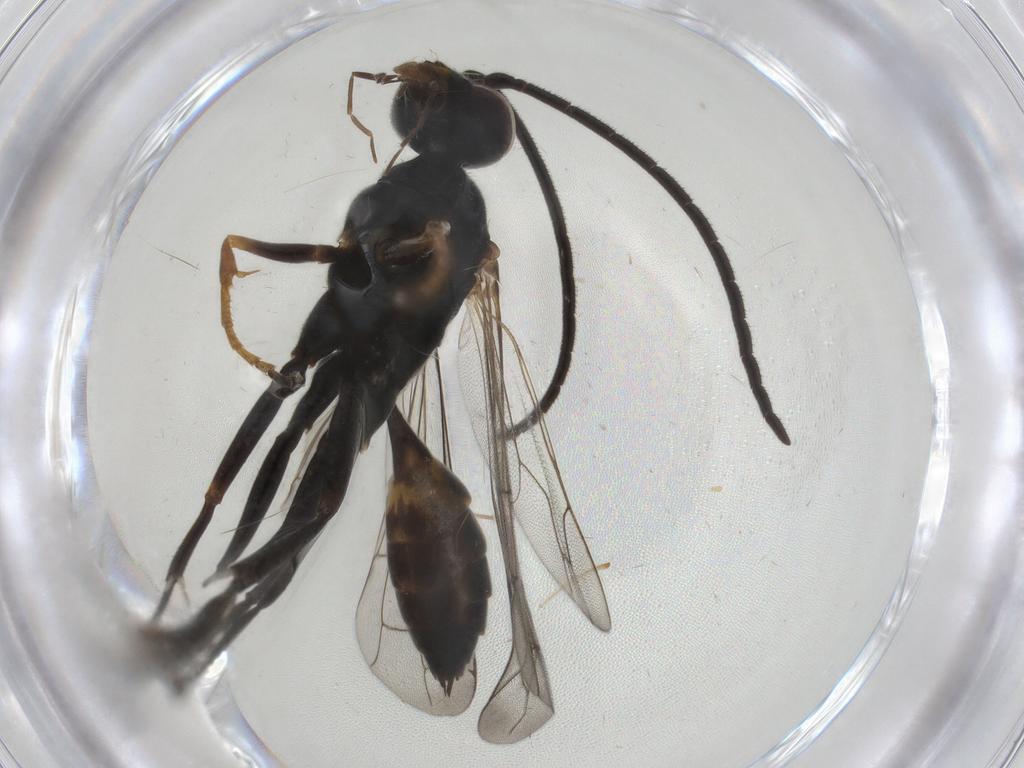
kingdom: Animalia
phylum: Arthropoda
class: Insecta
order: Hymenoptera
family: Pompilidae
